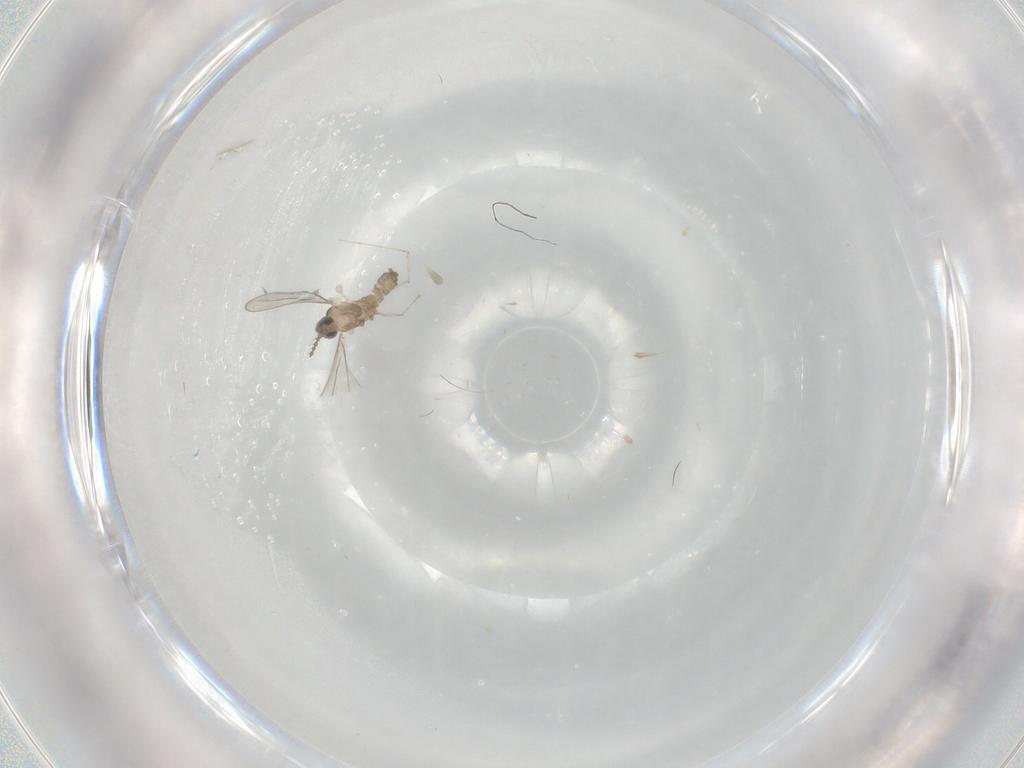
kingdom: Animalia
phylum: Arthropoda
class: Insecta
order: Diptera
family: Cecidomyiidae
